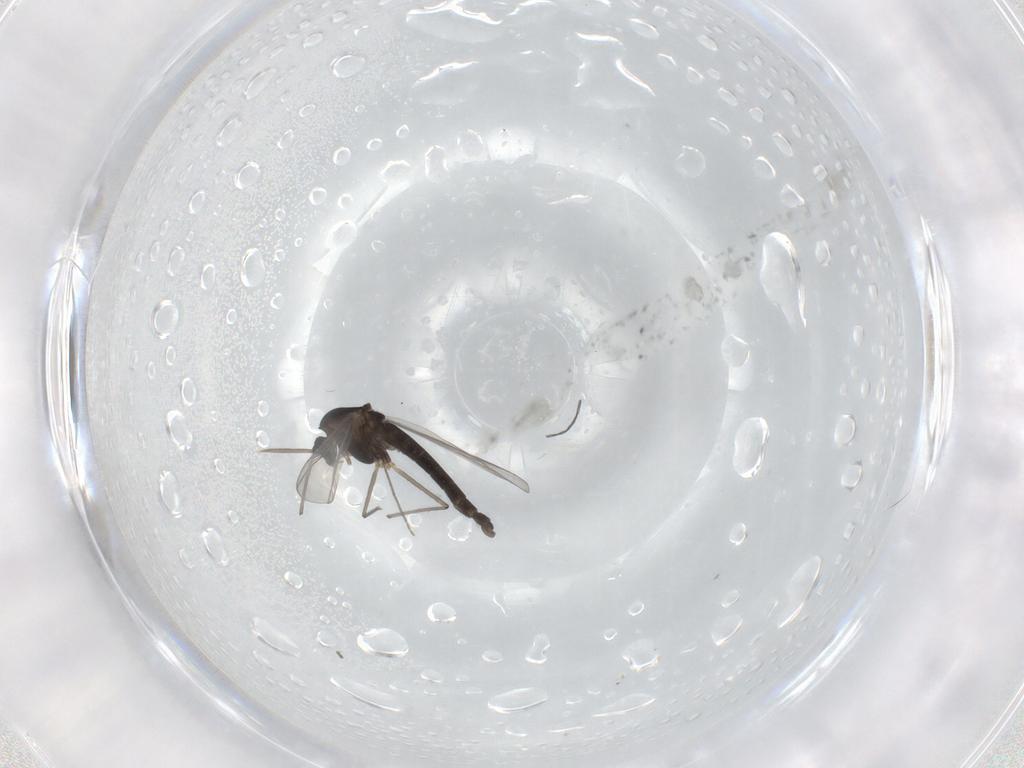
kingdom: Animalia
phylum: Arthropoda
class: Insecta
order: Diptera
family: Chironomidae
